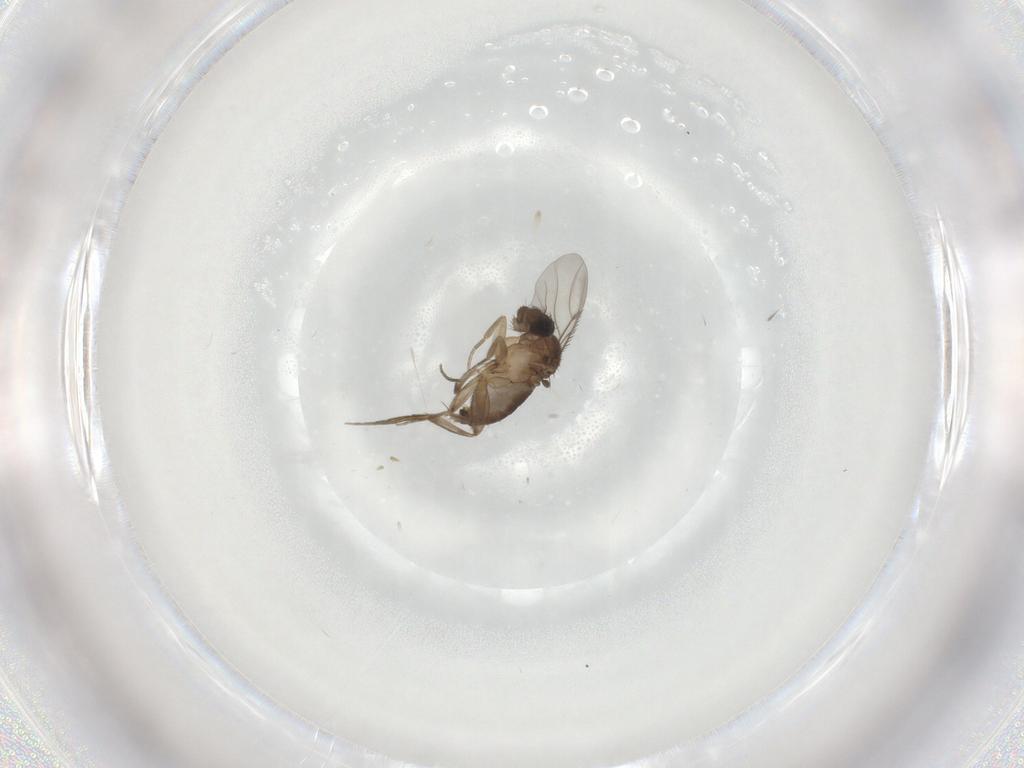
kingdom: Animalia
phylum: Arthropoda
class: Insecta
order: Diptera
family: Phoridae
